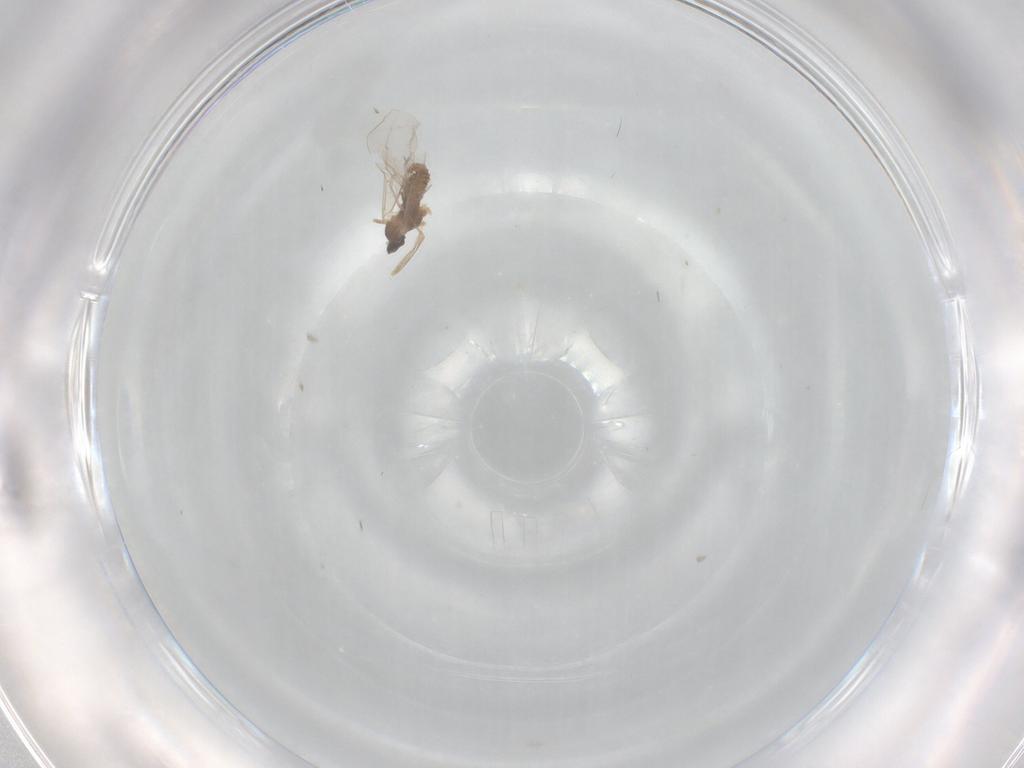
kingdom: Animalia
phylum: Arthropoda
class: Insecta
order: Diptera
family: Cecidomyiidae
